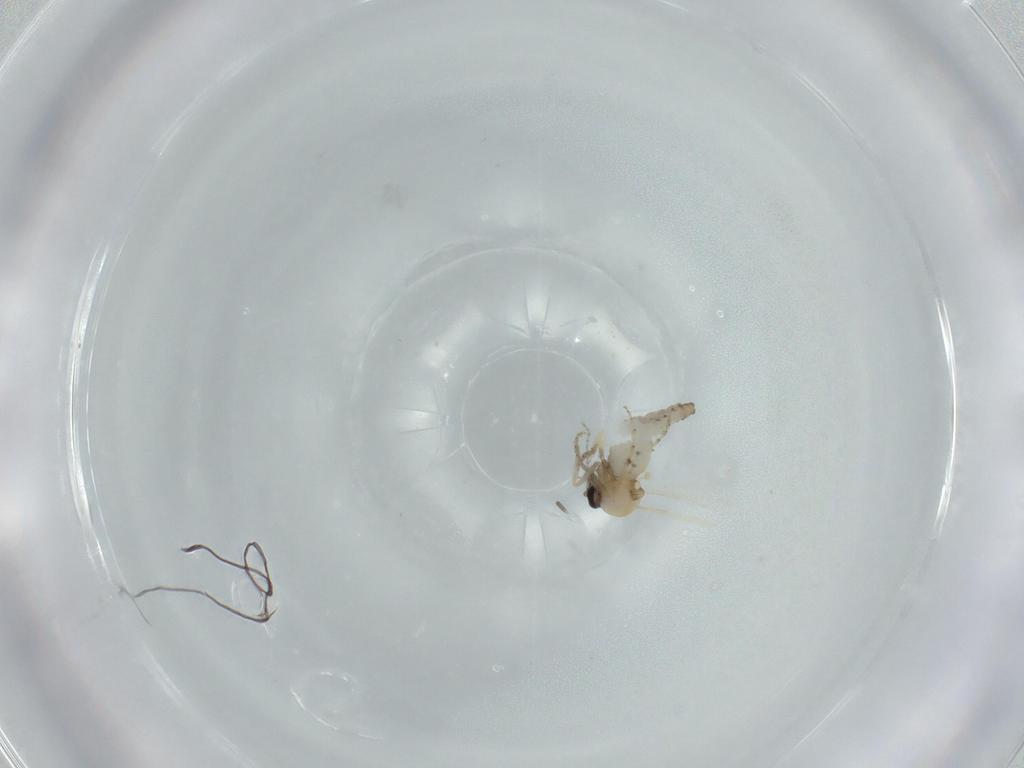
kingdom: Animalia
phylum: Arthropoda
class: Insecta
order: Diptera
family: Ceratopogonidae
